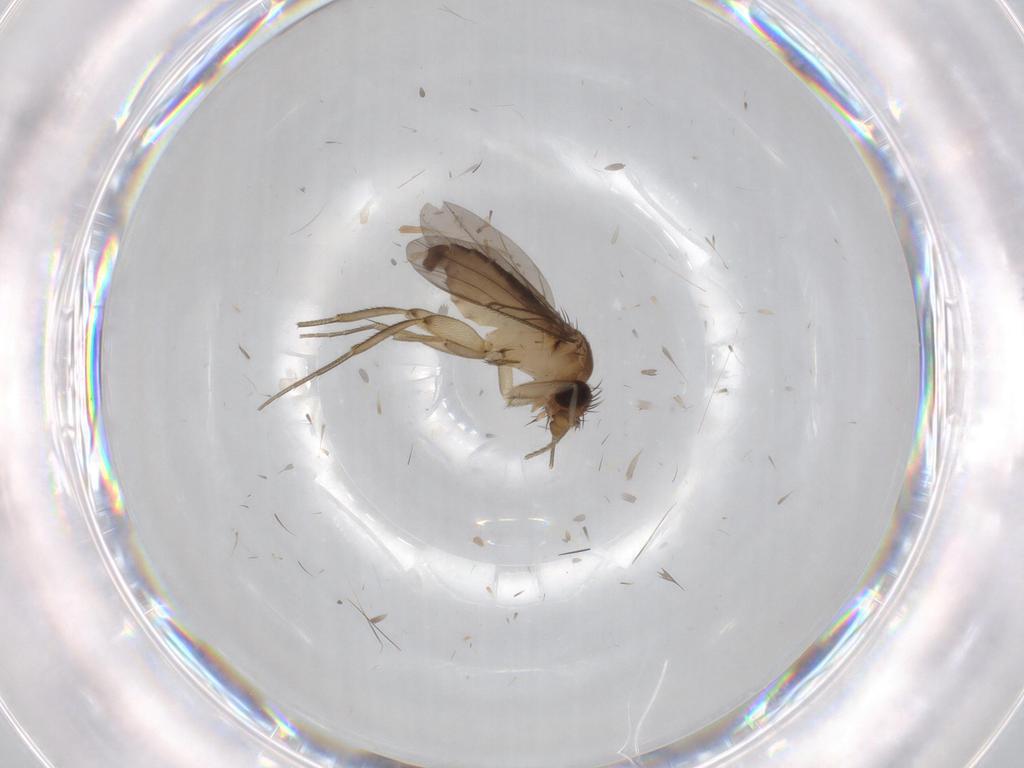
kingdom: Animalia
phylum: Arthropoda
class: Insecta
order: Diptera
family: Phoridae
